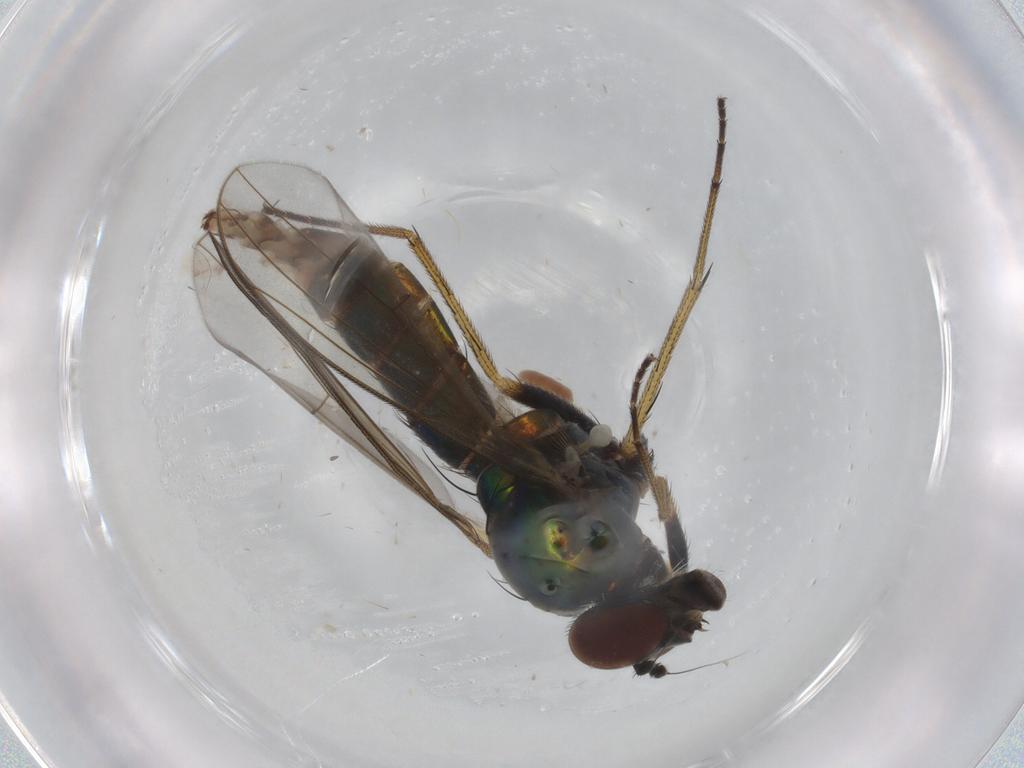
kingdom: Animalia
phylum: Arthropoda
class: Insecta
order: Diptera
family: Dolichopodidae
